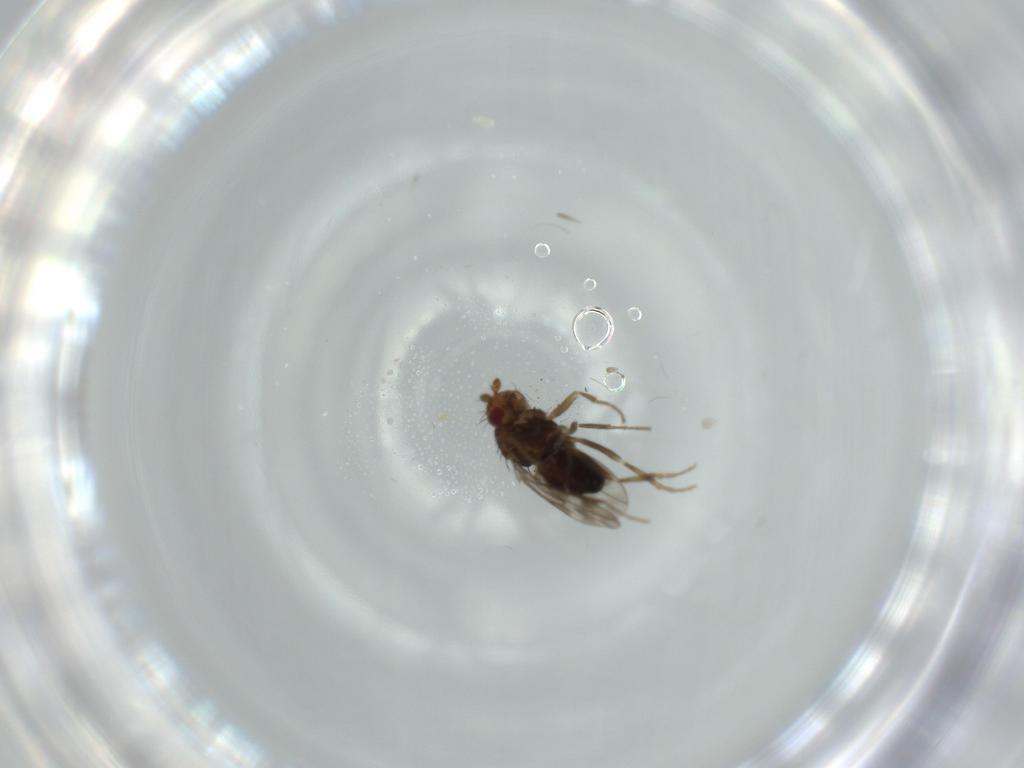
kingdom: Animalia
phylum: Arthropoda
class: Insecta
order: Diptera
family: Sphaeroceridae
